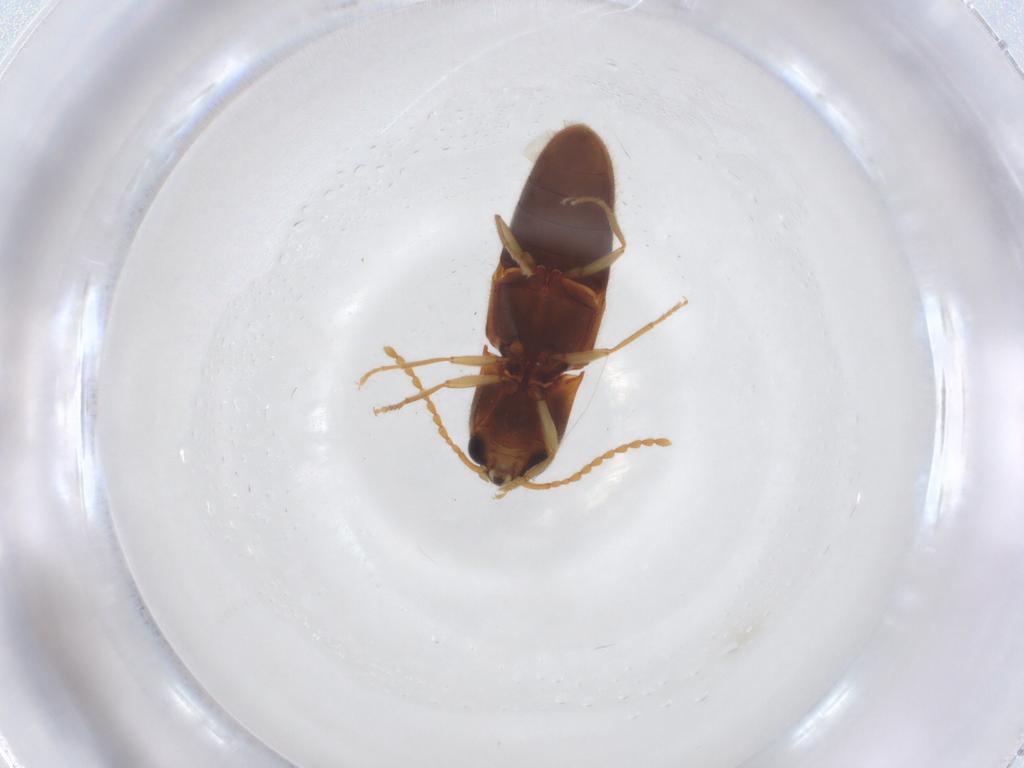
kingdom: Animalia
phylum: Arthropoda
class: Insecta
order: Coleoptera
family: Elateridae
